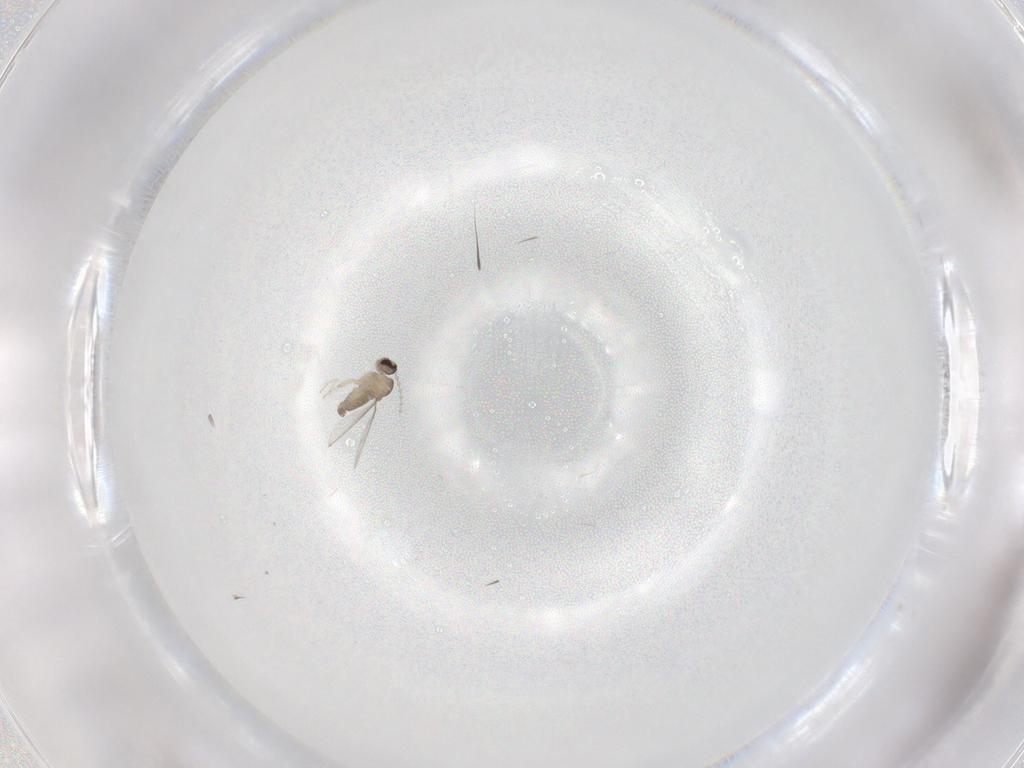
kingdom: Animalia
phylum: Arthropoda
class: Insecta
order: Diptera
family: Cecidomyiidae
